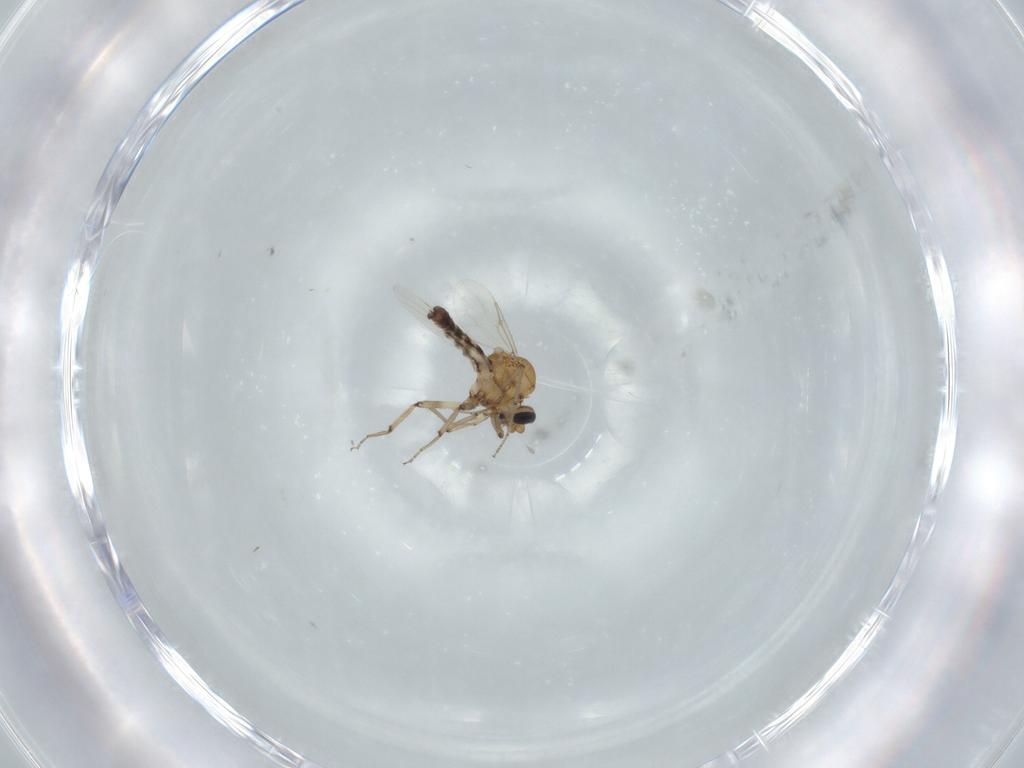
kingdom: Animalia
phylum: Arthropoda
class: Insecta
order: Diptera
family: Ceratopogonidae
